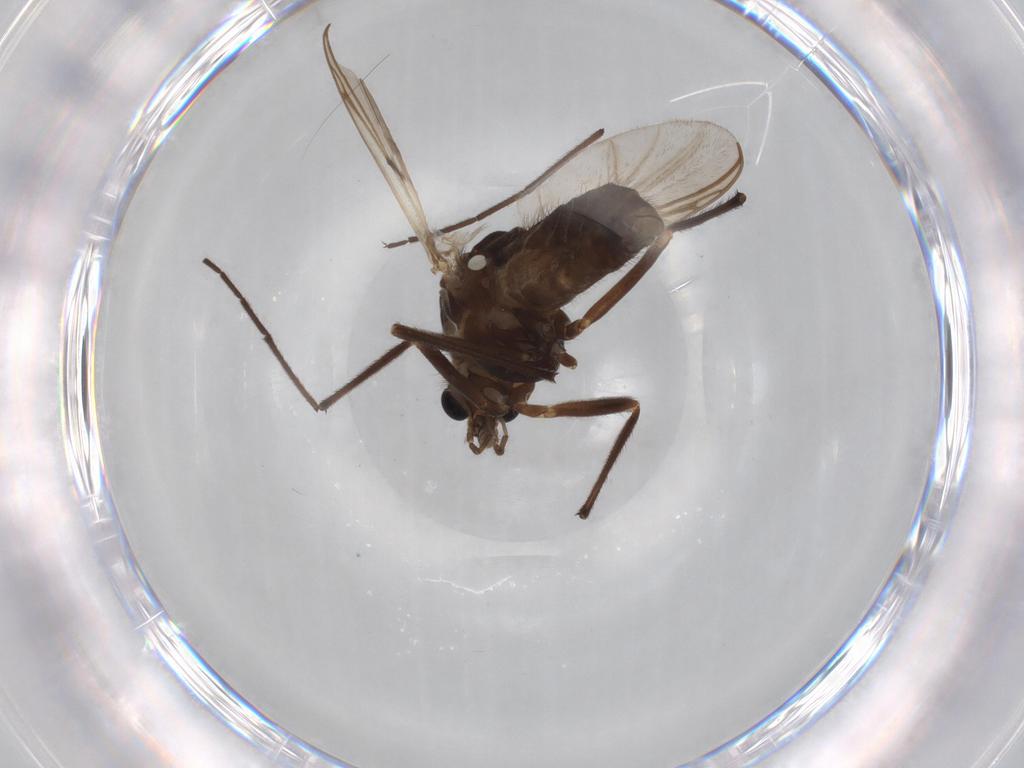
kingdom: Animalia
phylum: Arthropoda
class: Insecta
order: Diptera
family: Chironomidae
